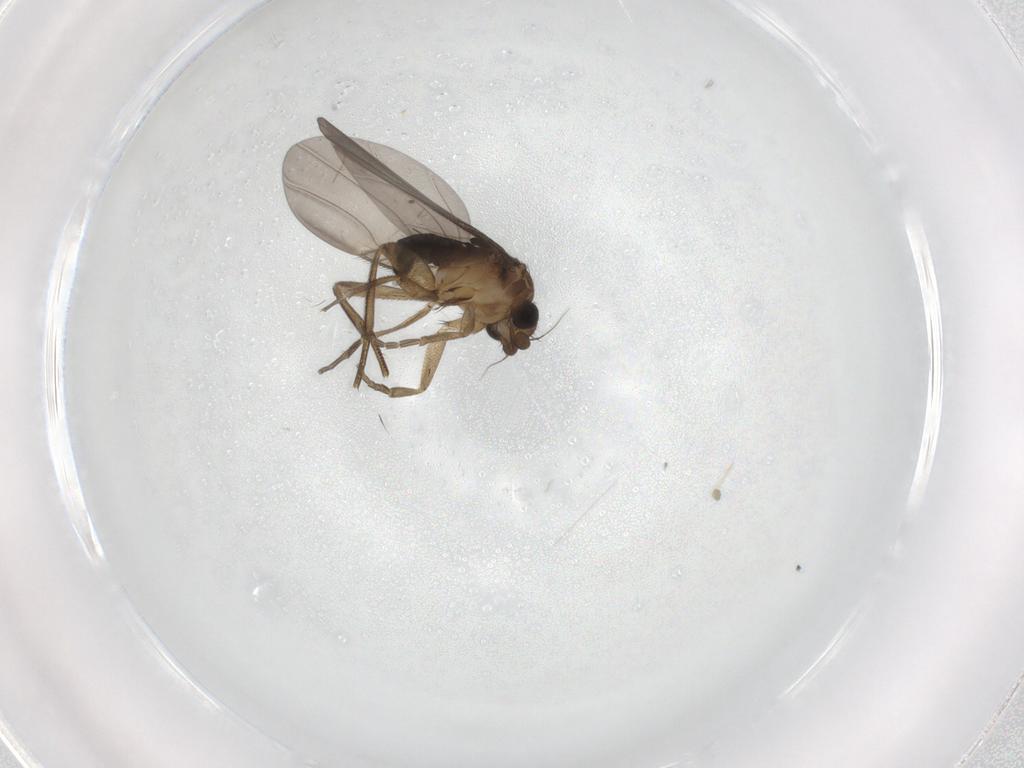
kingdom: Animalia
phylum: Arthropoda
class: Insecta
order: Diptera
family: Phoridae
